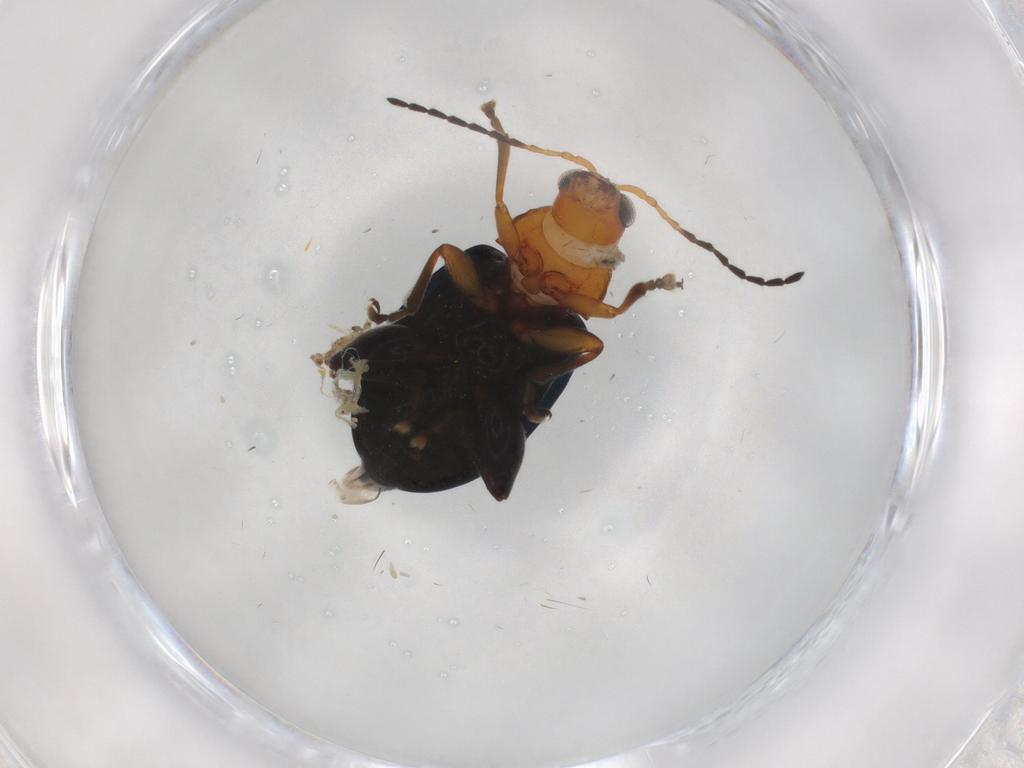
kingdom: Animalia
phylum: Arthropoda
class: Insecta
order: Coleoptera
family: Chrysomelidae
